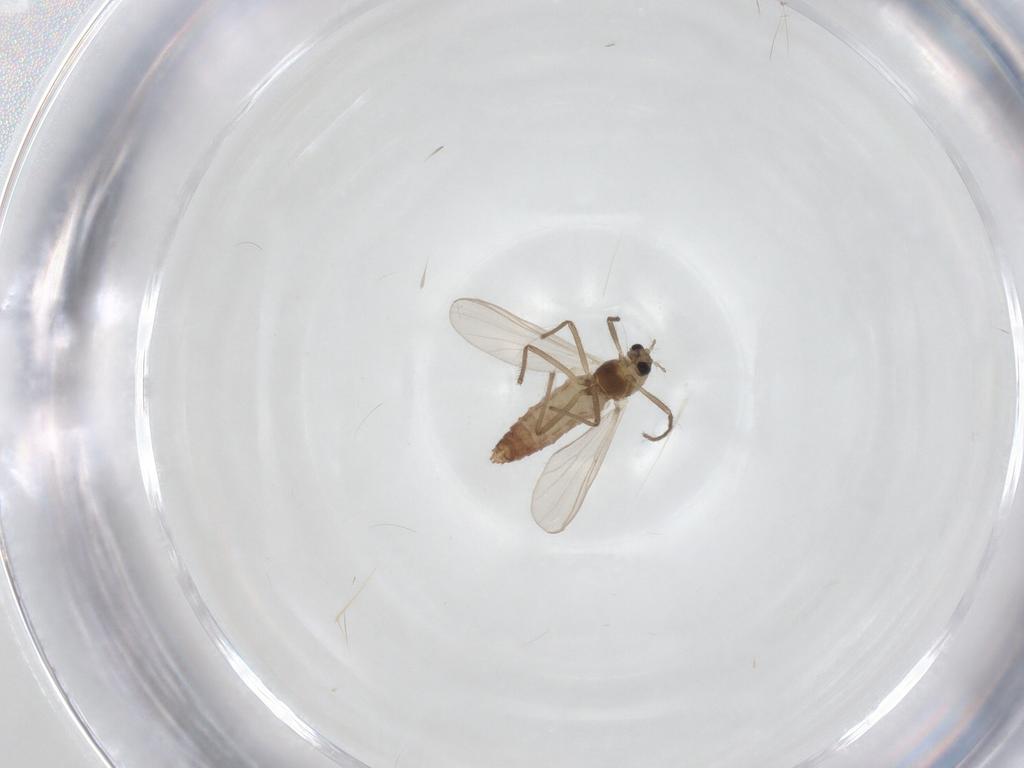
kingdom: Animalia
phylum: Arthropoda
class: Insecta
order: Diptera
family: Chironomidae
